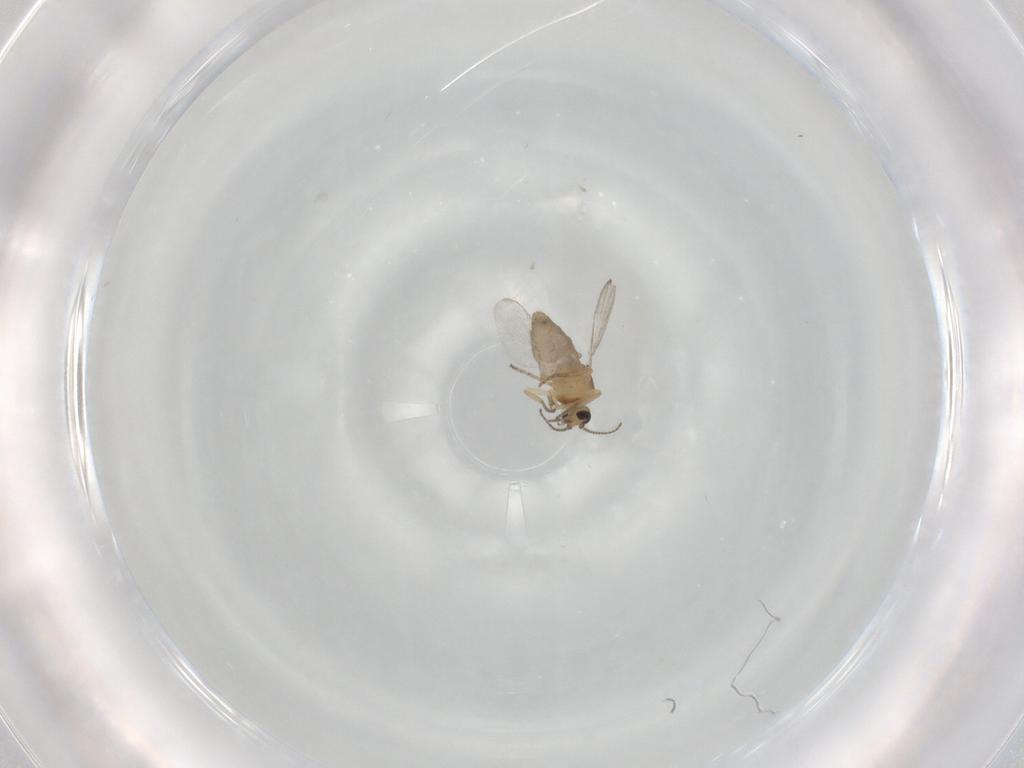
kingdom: Animalia
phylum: Arthropoda
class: Insecta
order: Diptera
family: Ceratopogonidae
